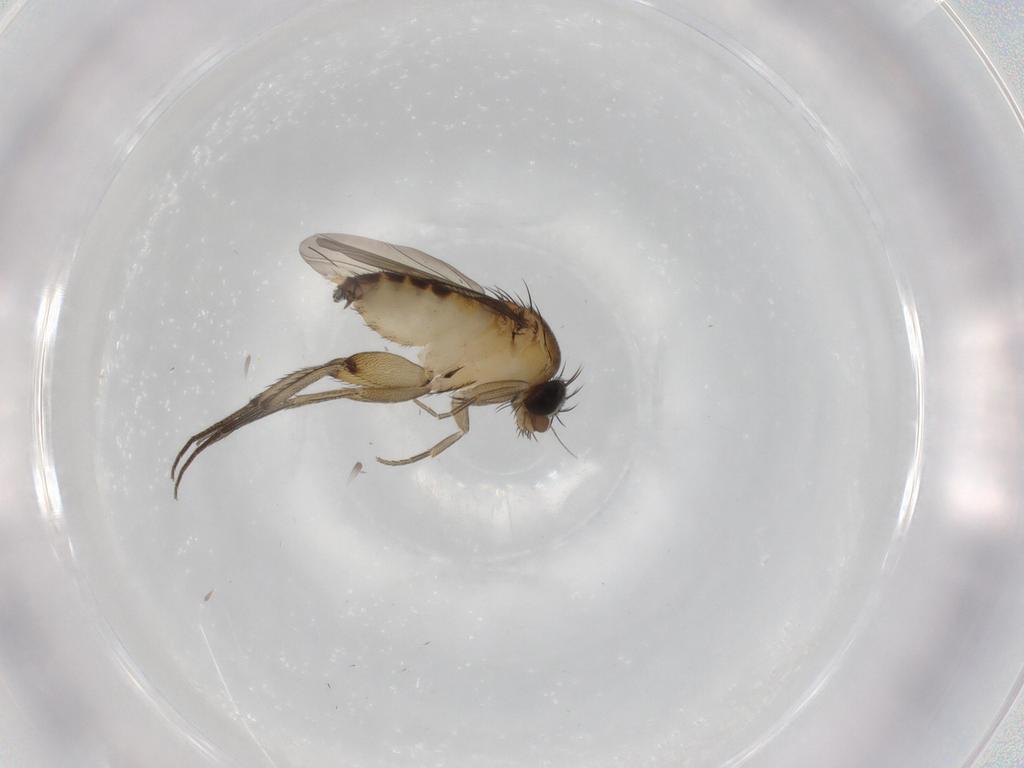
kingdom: Animalia
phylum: Arthropoda
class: Insecta
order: Diptera
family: Phoridae
